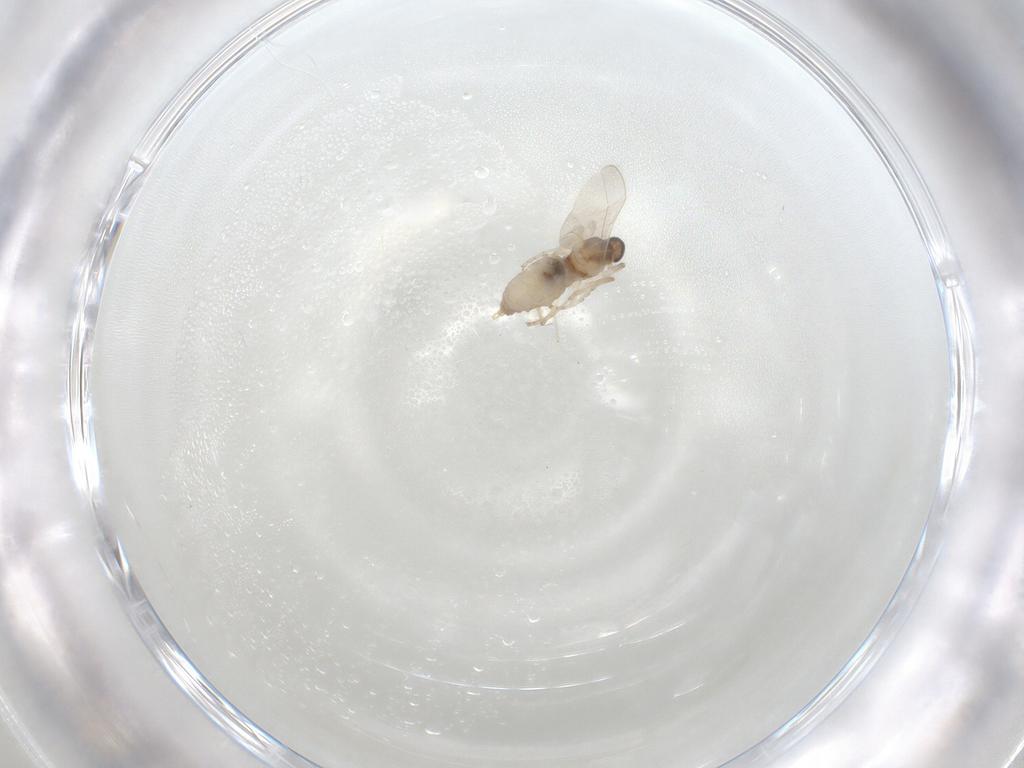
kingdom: Animalia
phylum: Arthropoda
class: Insecta
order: Diptera
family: Cecidomyiidae
